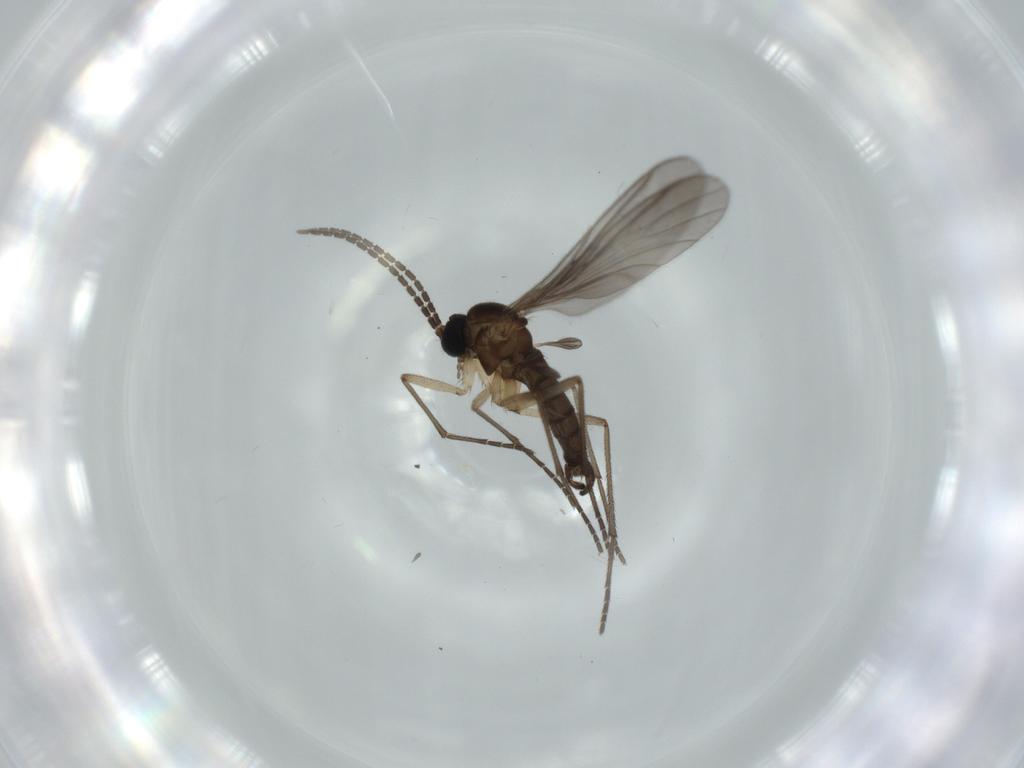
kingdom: Animalia
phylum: Arthropoda
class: Insecta
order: Diptera
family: Sciaridae
